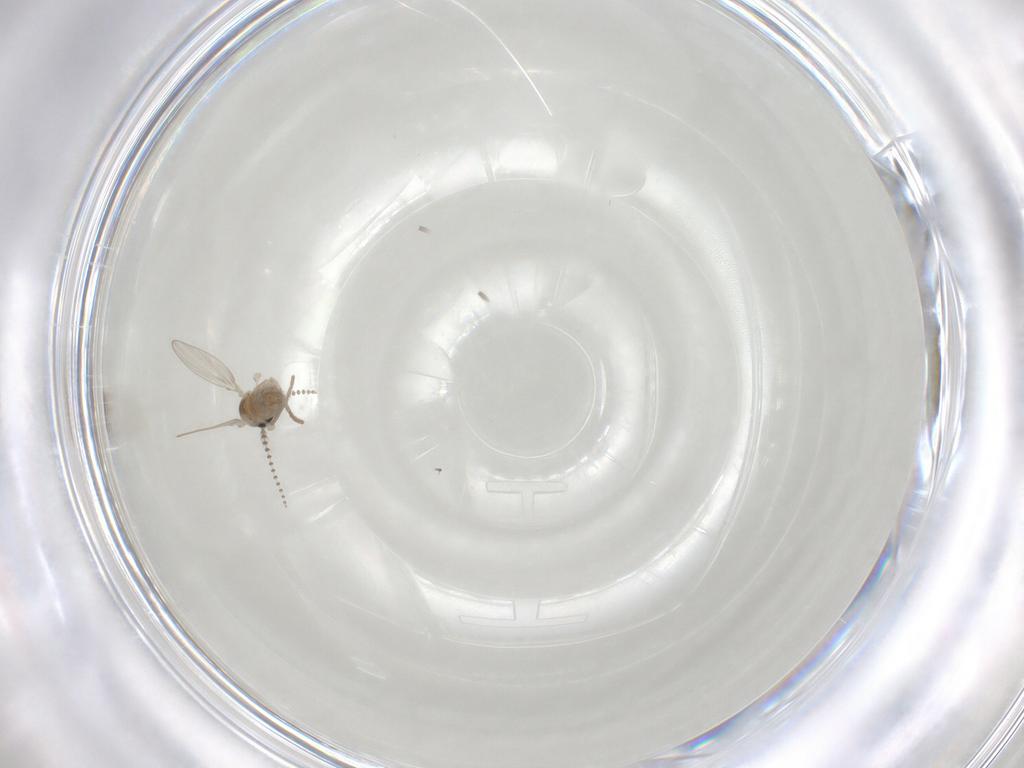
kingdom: Animalia
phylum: Arthropoda
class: Insecta
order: Diptera
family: Psychodidae
